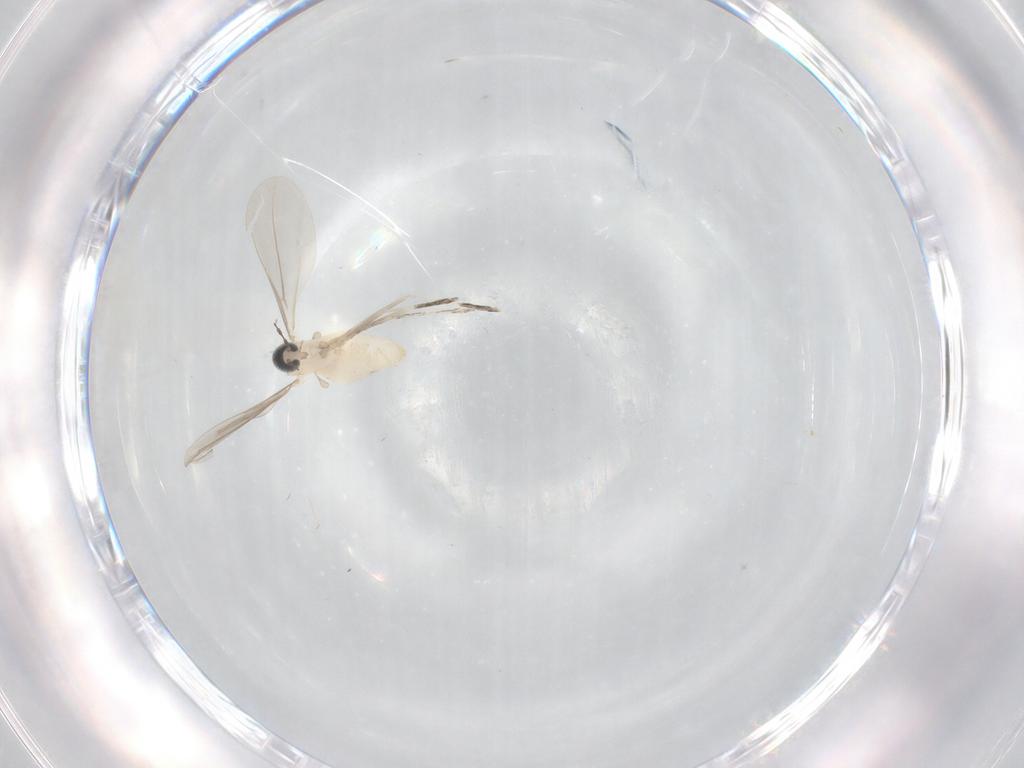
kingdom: Animalia
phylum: Arthropoda
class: Insecta
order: Diptera
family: Cecidomyiidae
